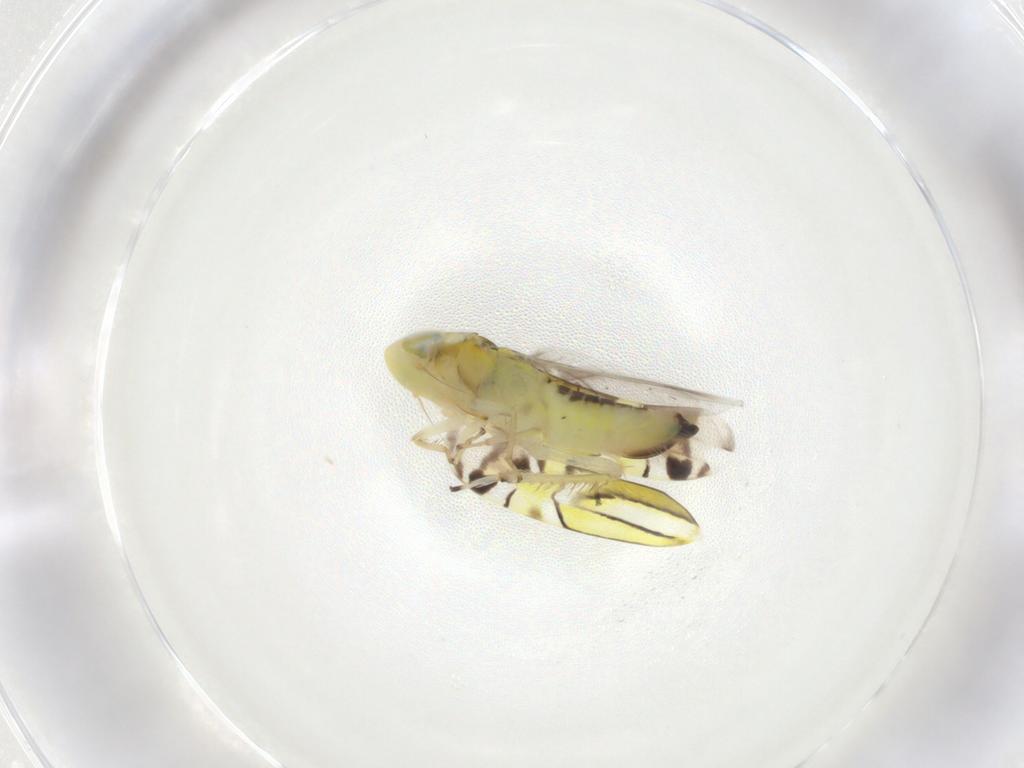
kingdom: Animalia
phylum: Arthropoda
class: Insecta
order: Hemiptera
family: Cicadellidae
